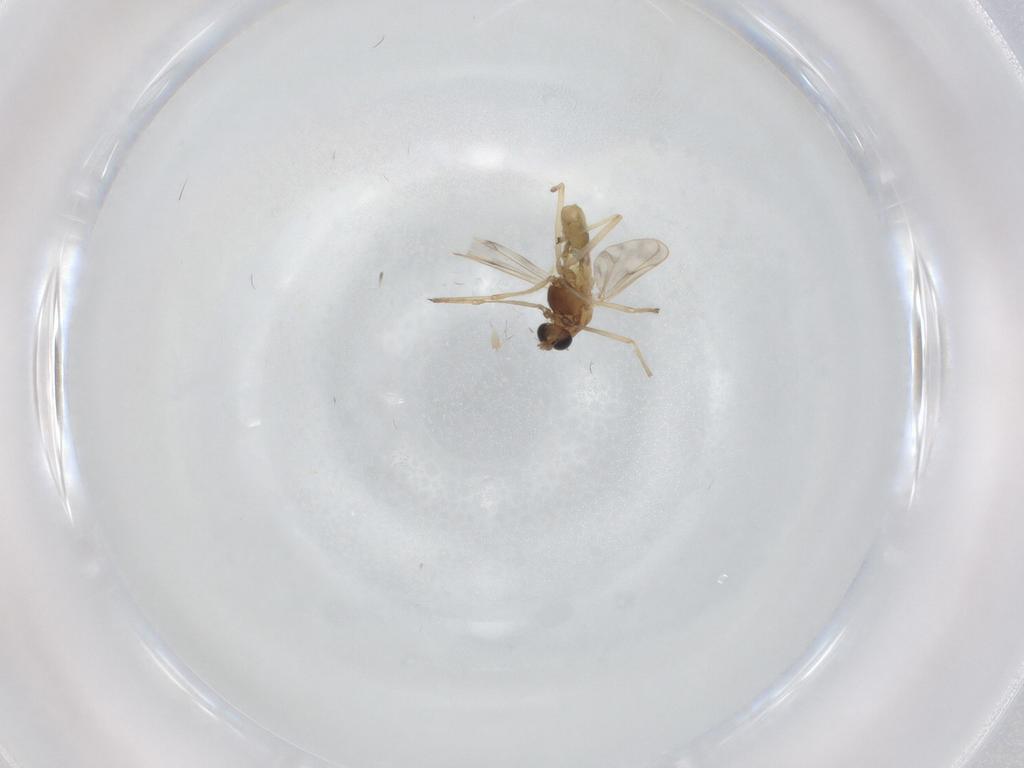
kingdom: Animalia
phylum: Arthropoda
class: Insecta
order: Diptera
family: Chironomidae
